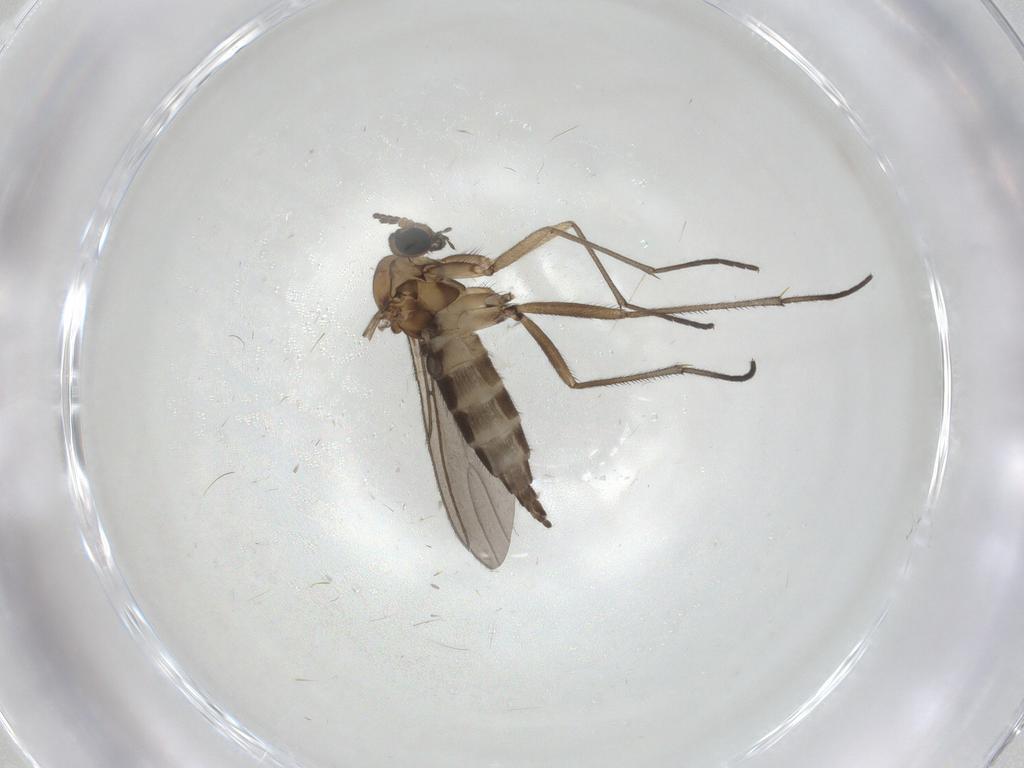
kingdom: Animalia
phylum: Arthropoda
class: Insecta
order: Diptera
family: Sciaridae
